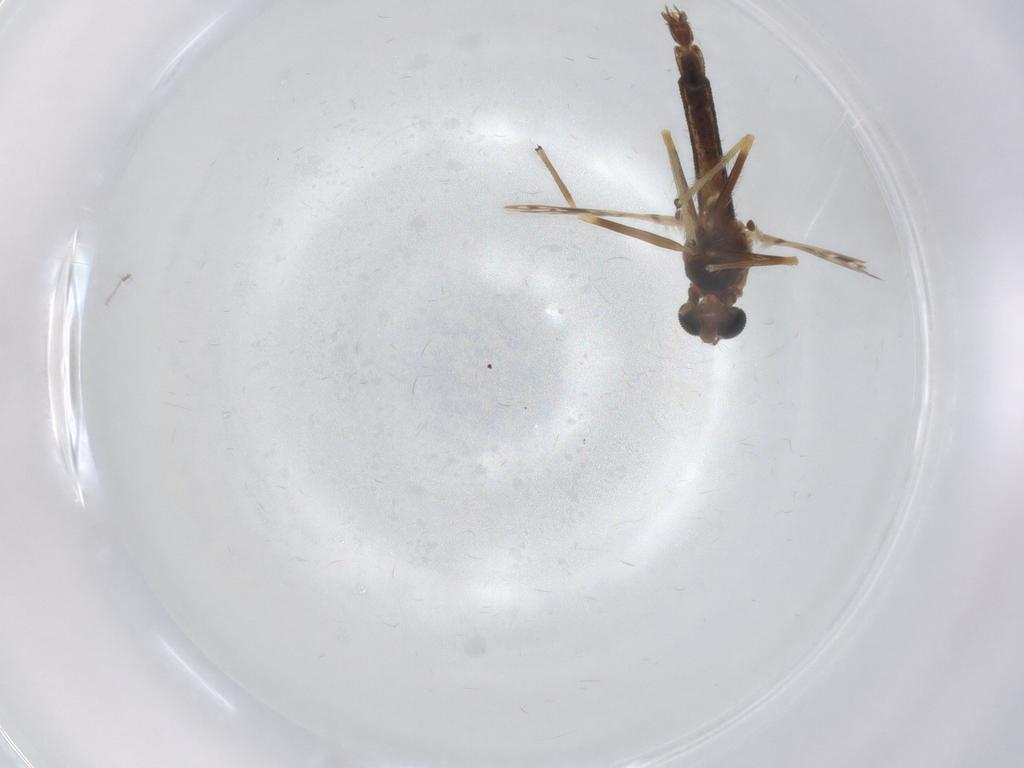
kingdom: Animalia
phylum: Arthropoda
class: Insecta
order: Diptera
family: Chironomidae
